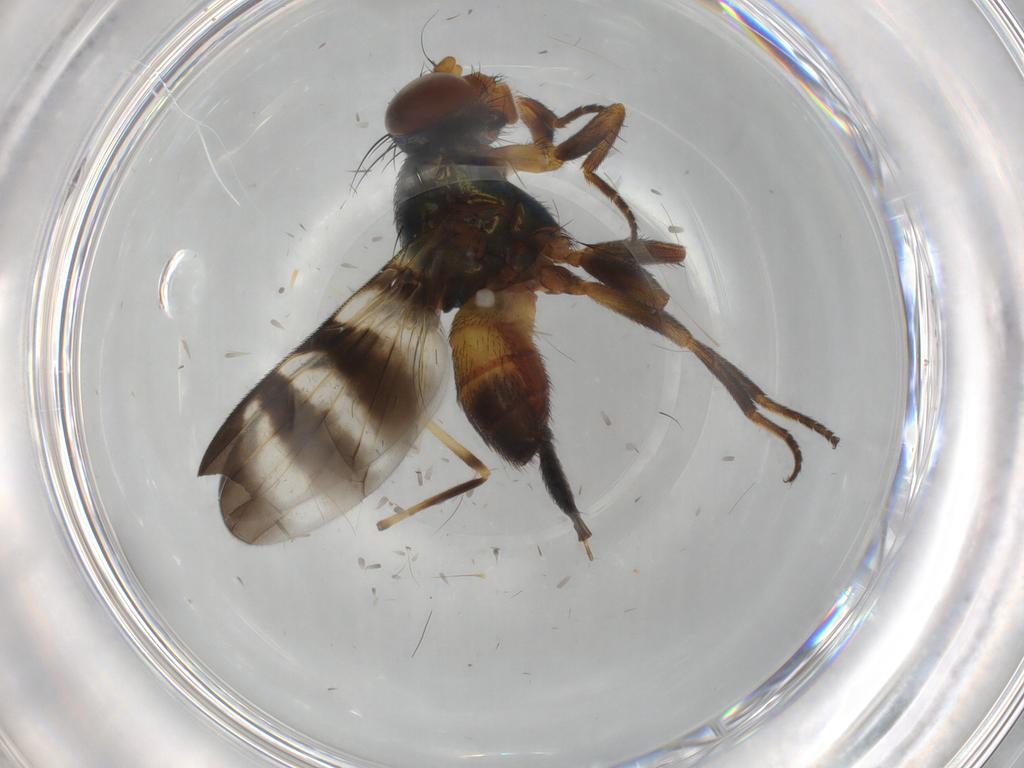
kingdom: Animalia
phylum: Arthropoda
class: Insecta
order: Diptera
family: Hybotidae
